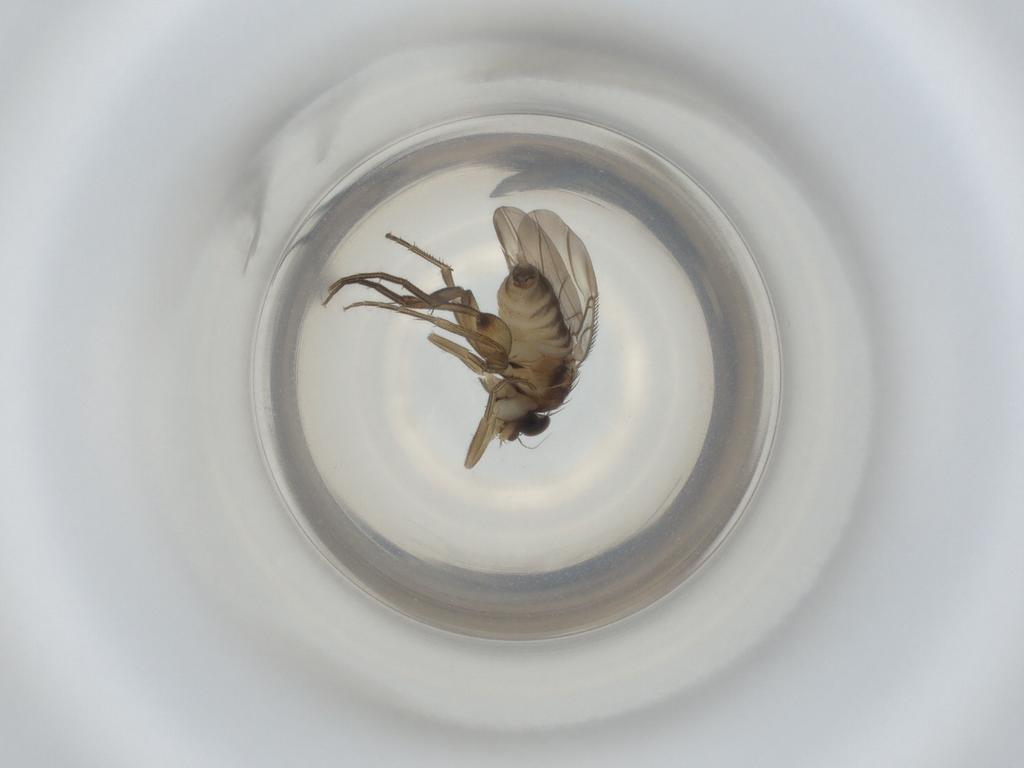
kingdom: Animalia
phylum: Arthropoda
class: Insecta
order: Diptera
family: Phoridae
